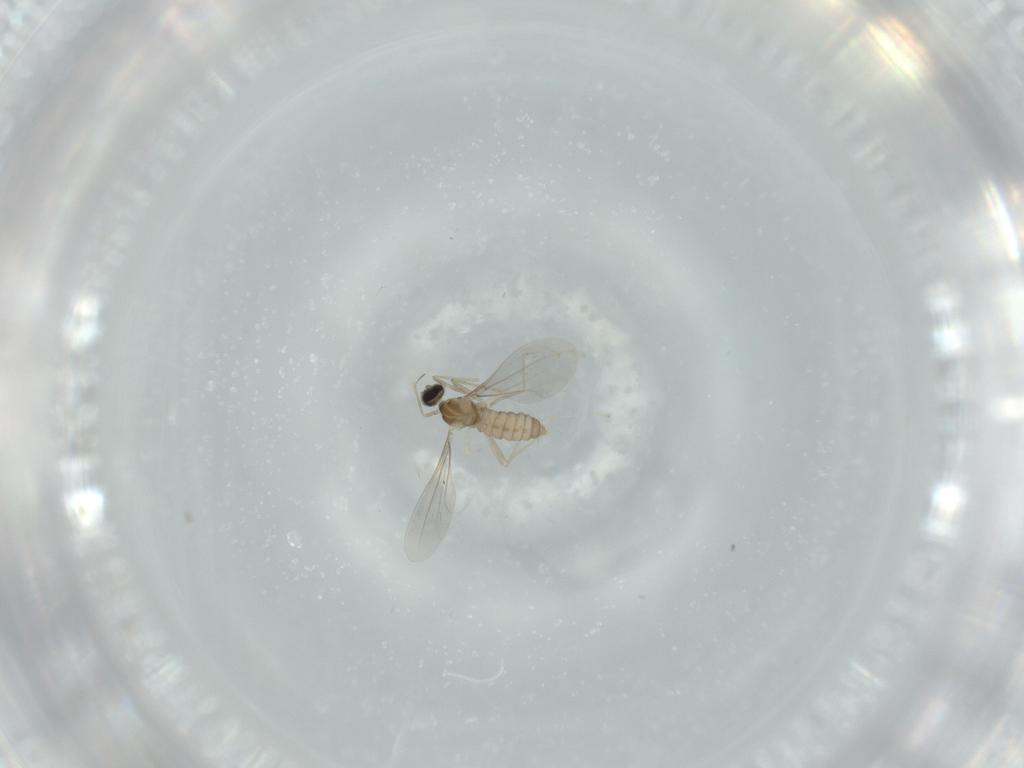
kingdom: Animalia
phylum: Arthropoda
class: Insecta
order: Diptera
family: Cecidomyiidae
